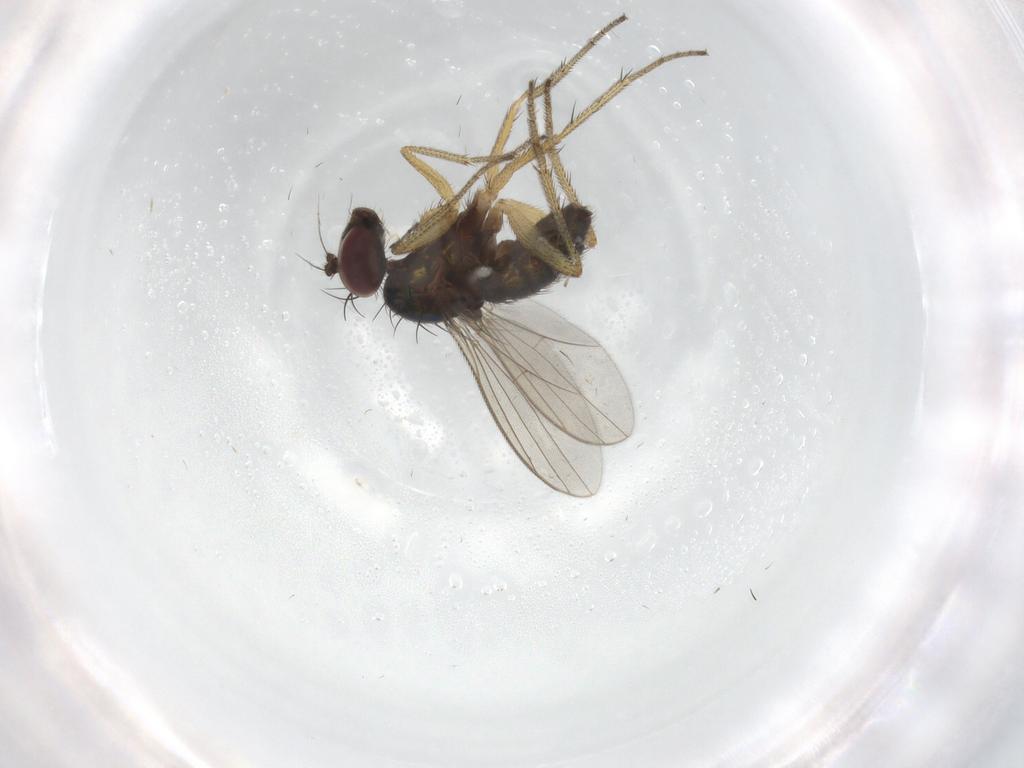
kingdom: Animalia
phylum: Arthropoda
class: Insecta
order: Diptera
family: Dolichopodidae
